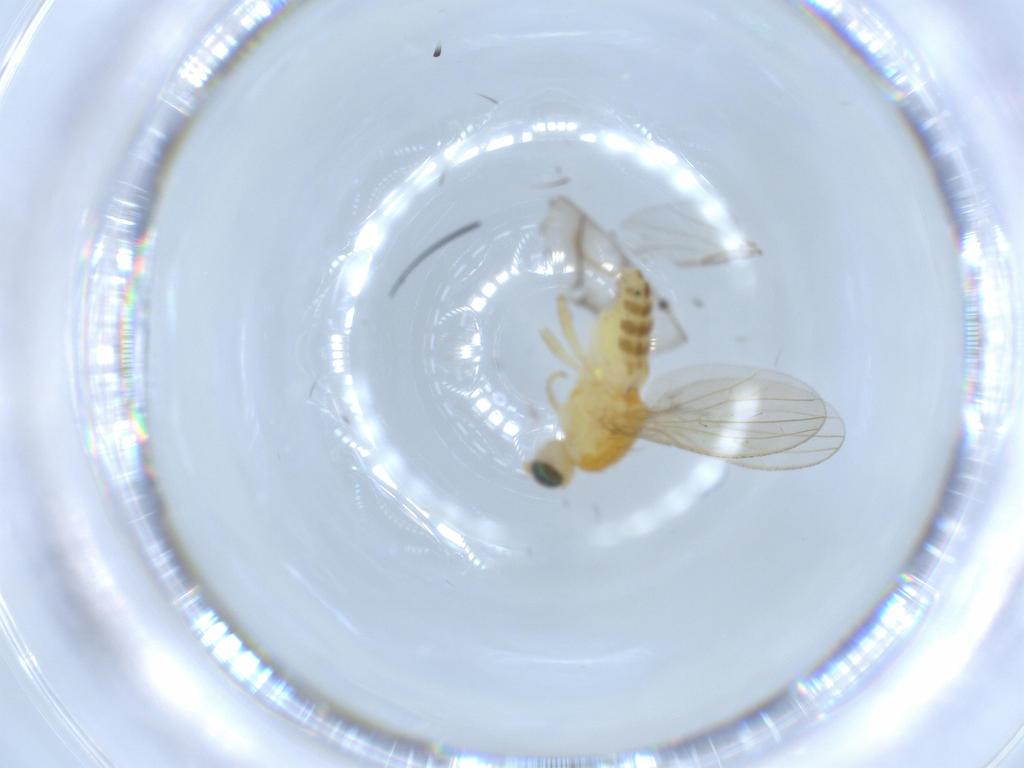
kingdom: Animalia
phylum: Arthropoda
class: Insecta
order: Diptera
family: Chyromyidae
